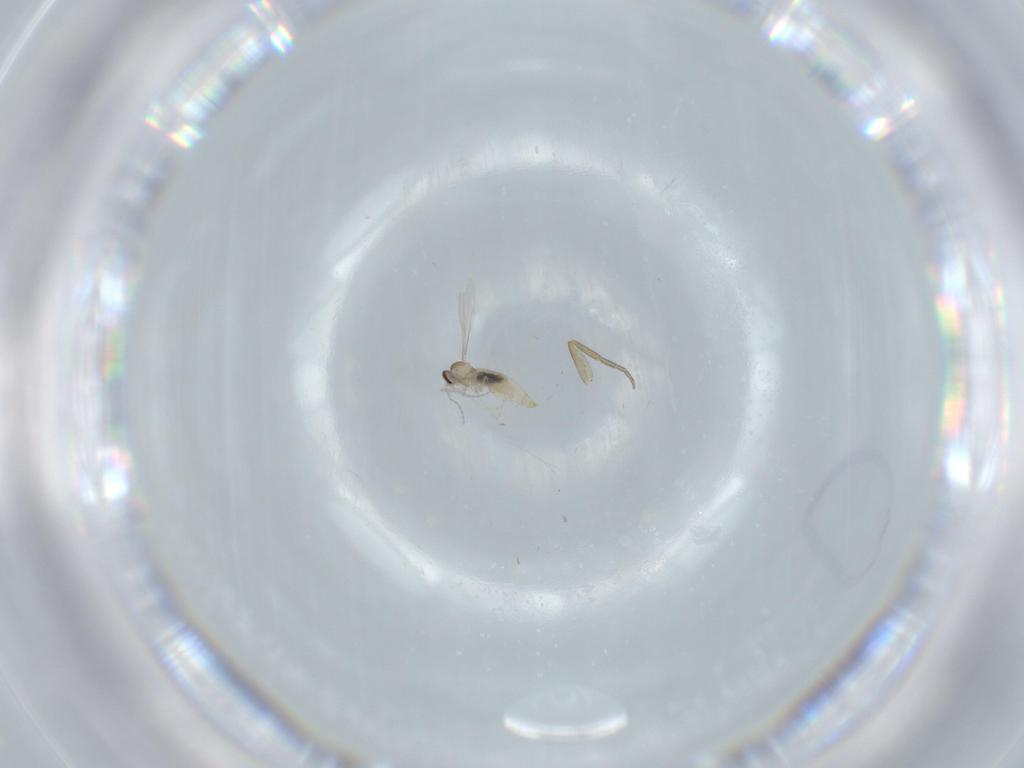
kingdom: Animalia
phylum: Arthropoda
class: Insecta
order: Diptera
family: Cecidomyiidae
